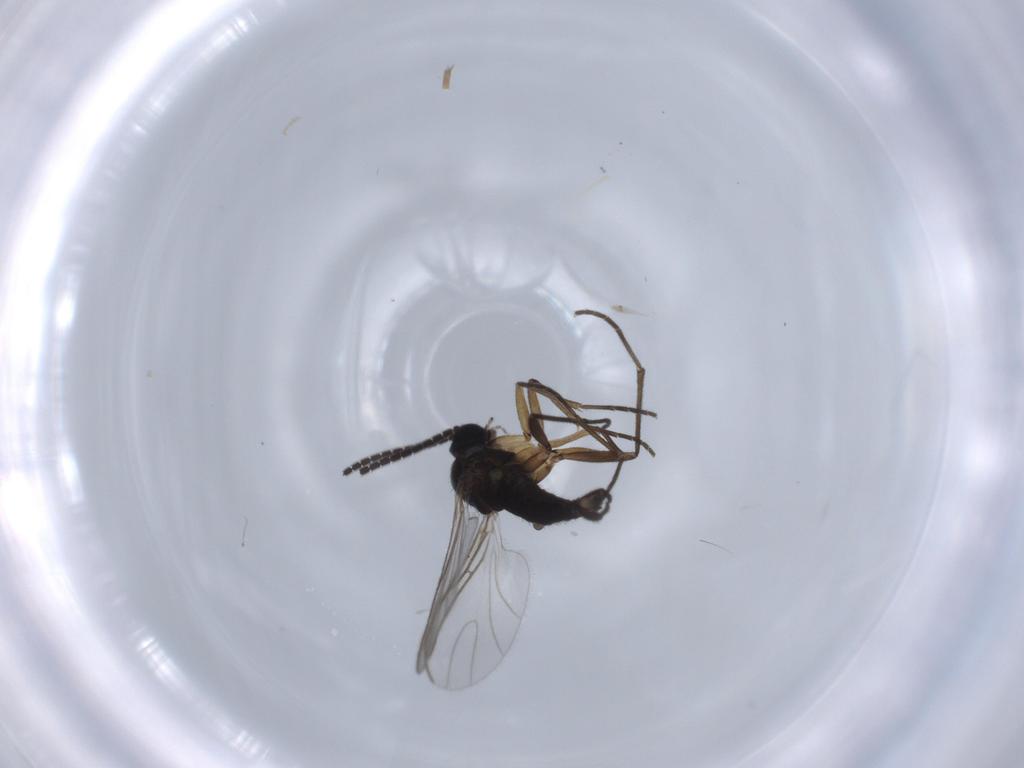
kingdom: Animalia
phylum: Arthropoda
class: Insecta
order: Diptera
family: Sciaridae
